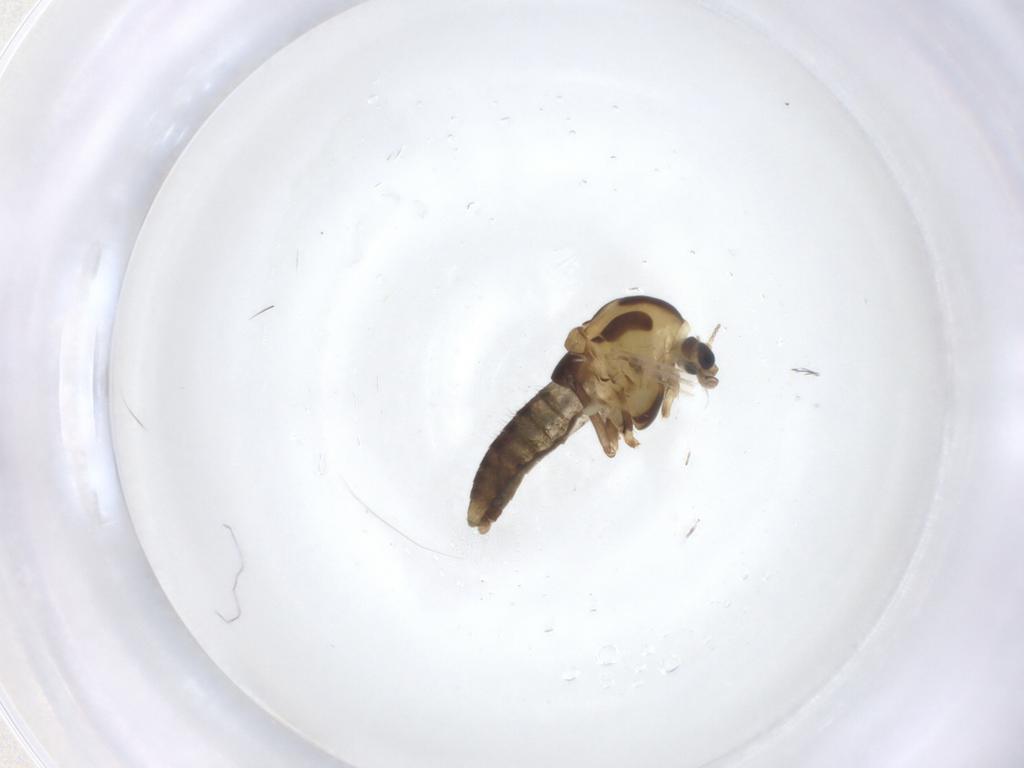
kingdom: Animalia
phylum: Arthropoda
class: Insecta
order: Diptera
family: Chironomidae
